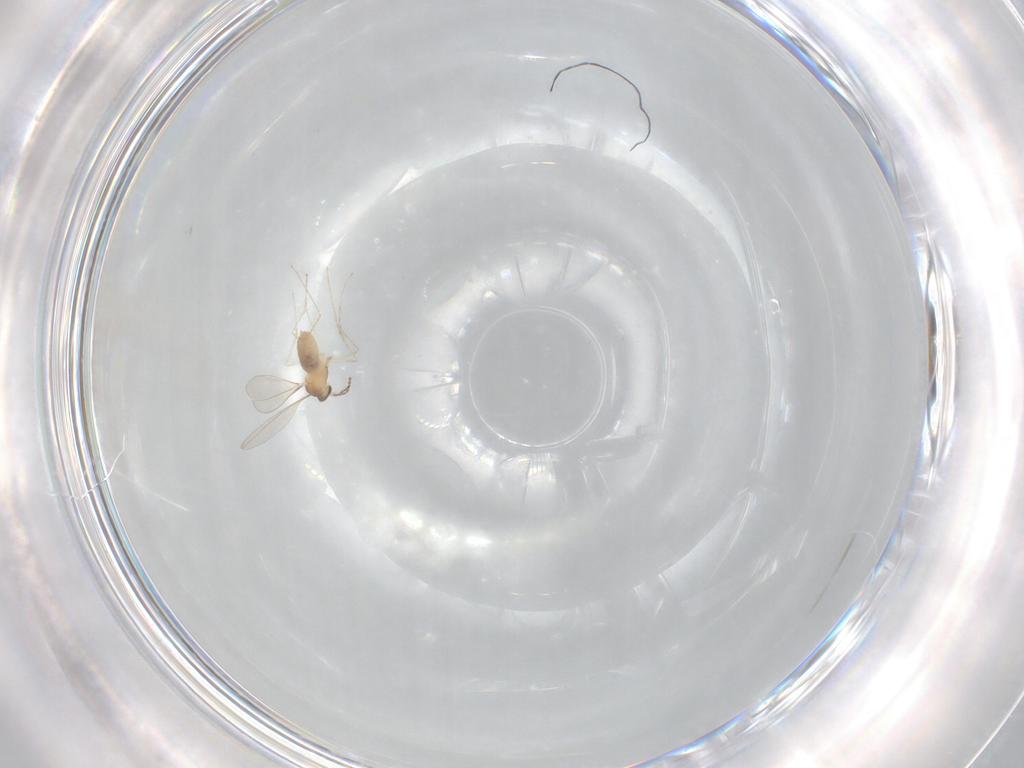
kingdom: Animalia
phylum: Arthropoda
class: Insecta
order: Diptera
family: Cecidomyiidae
